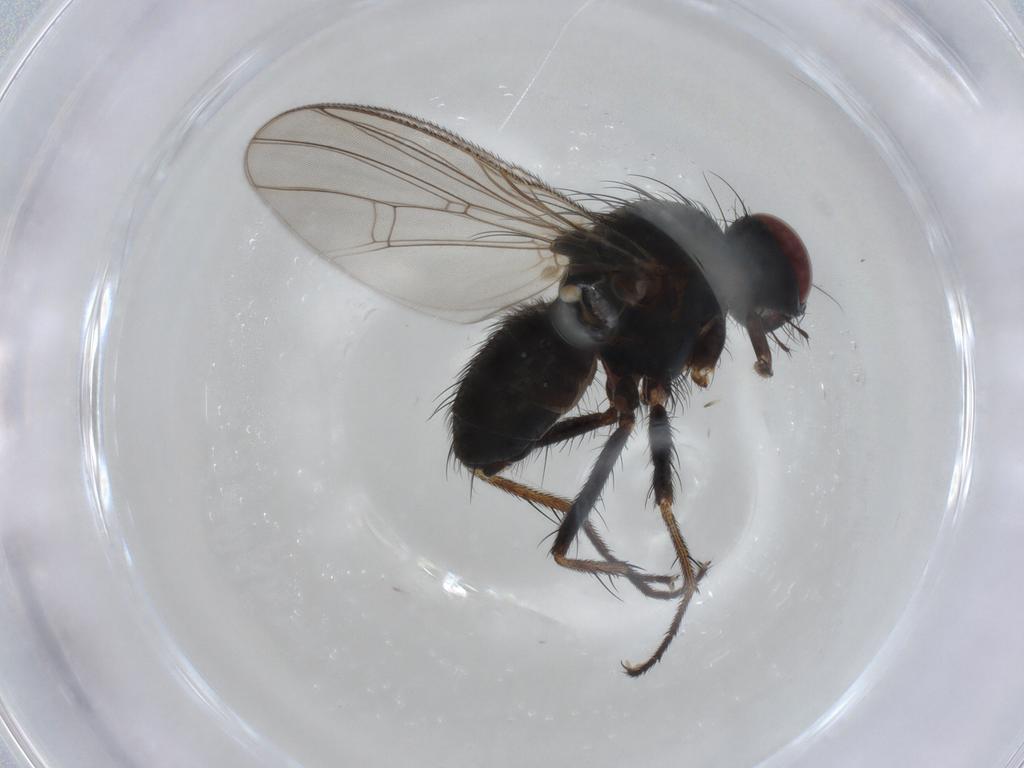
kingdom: Animalia
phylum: Arthropoda
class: Insecta
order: Diptera
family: Muscidae
